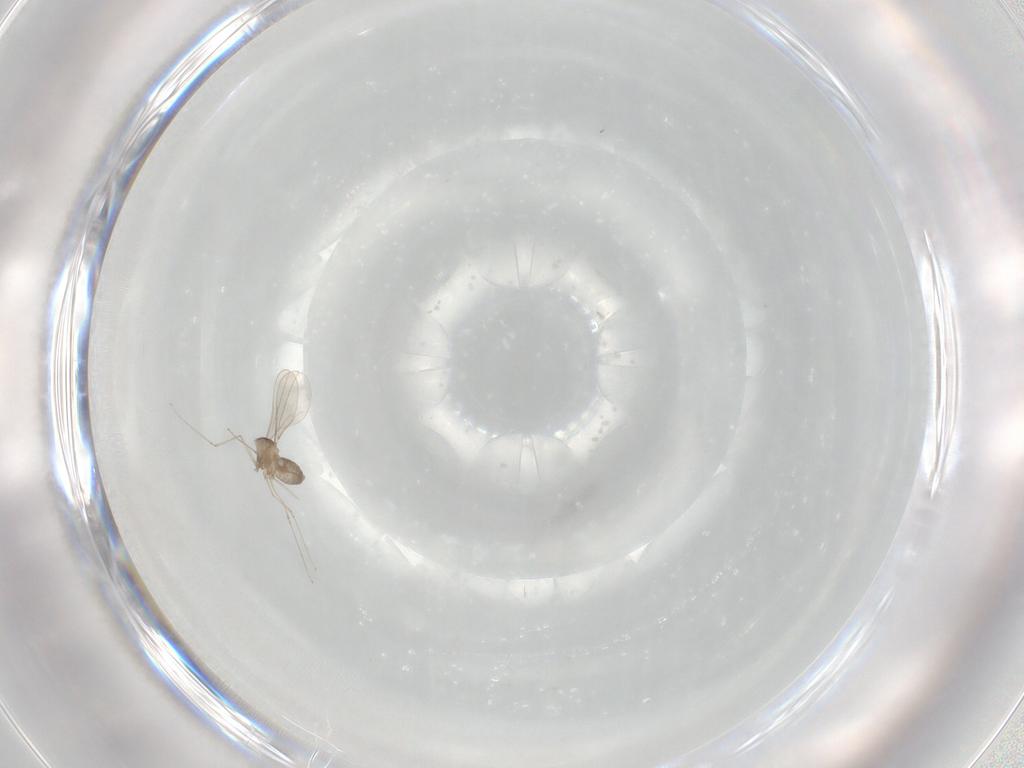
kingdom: Animalia
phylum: Arthropoda
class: Insecta
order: Diptera
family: Cecidomyiidae
